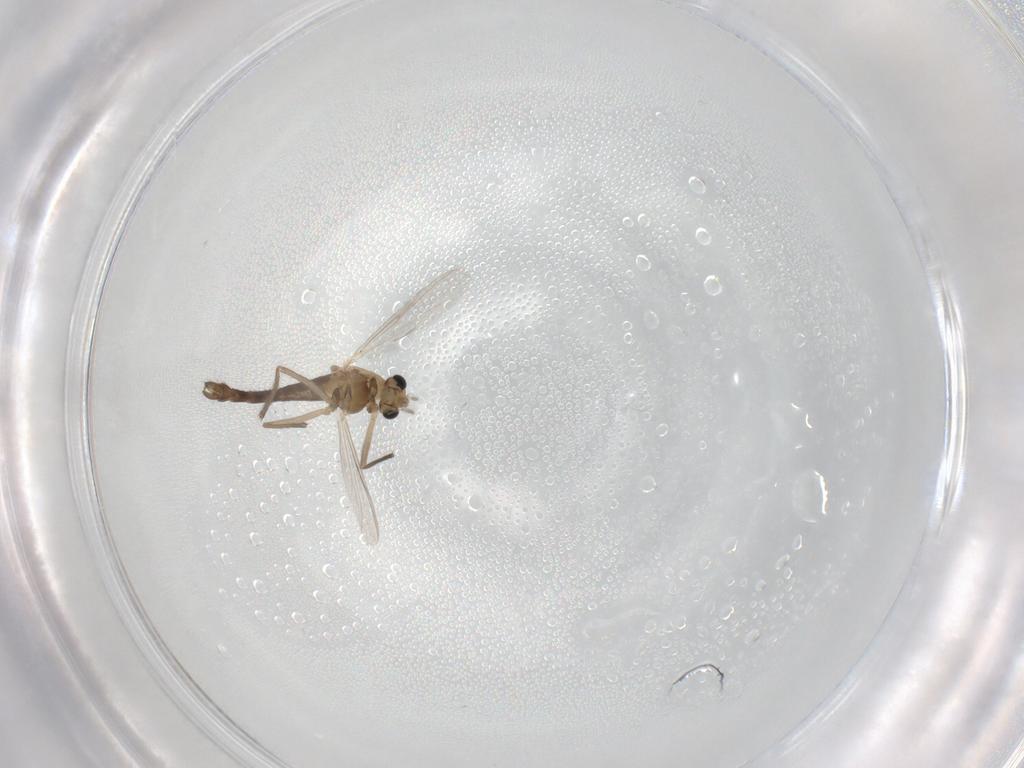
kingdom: Animalia
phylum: Arthropoda
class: Insecta
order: Diptera
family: Chironomidae
